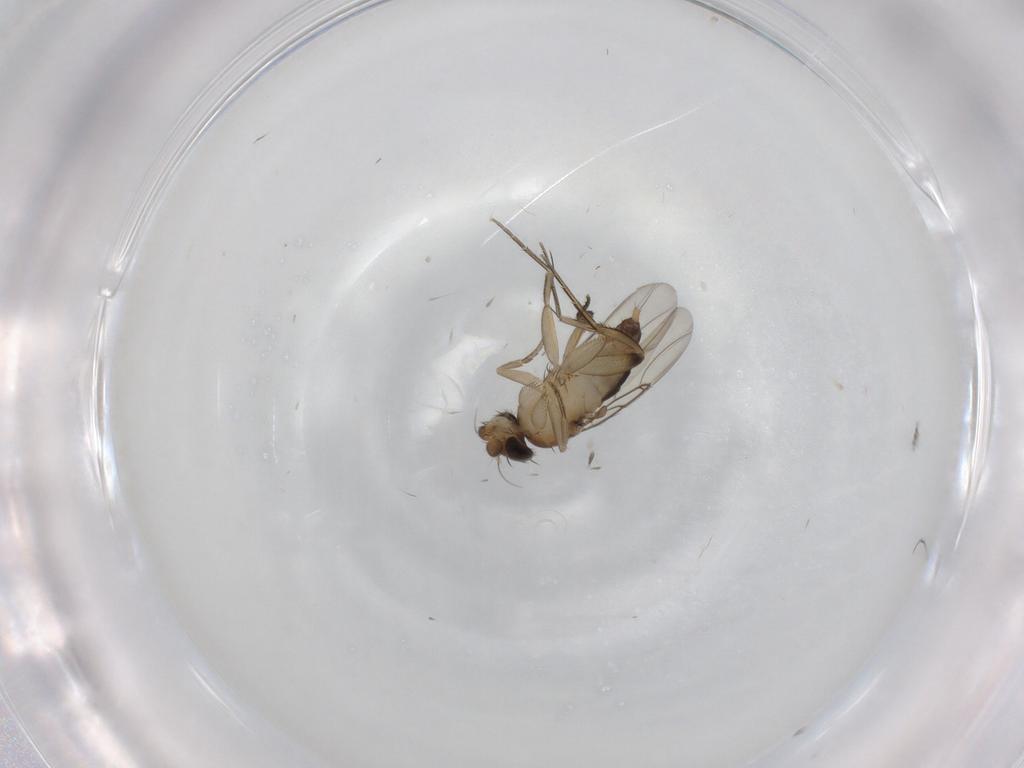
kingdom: Animalia
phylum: Arthropoda
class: Insecta
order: Diptera
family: Phoridae
